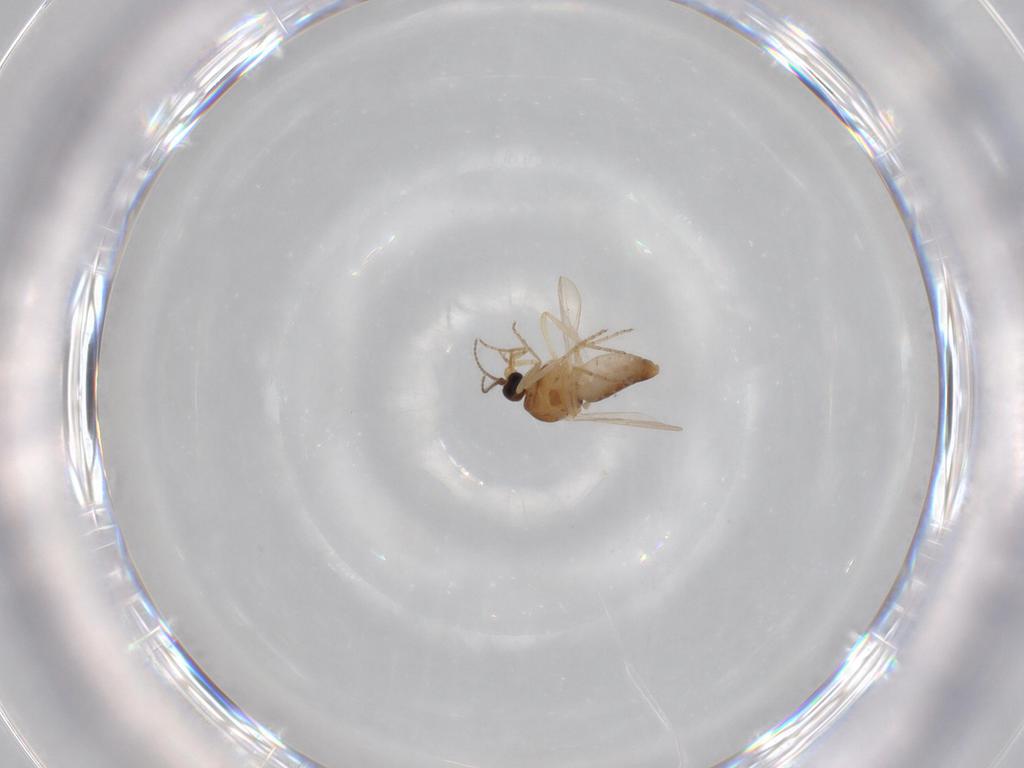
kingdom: Animalia
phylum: Arthropoda
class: Insecta
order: Diptera
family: Ceratopogonidae
